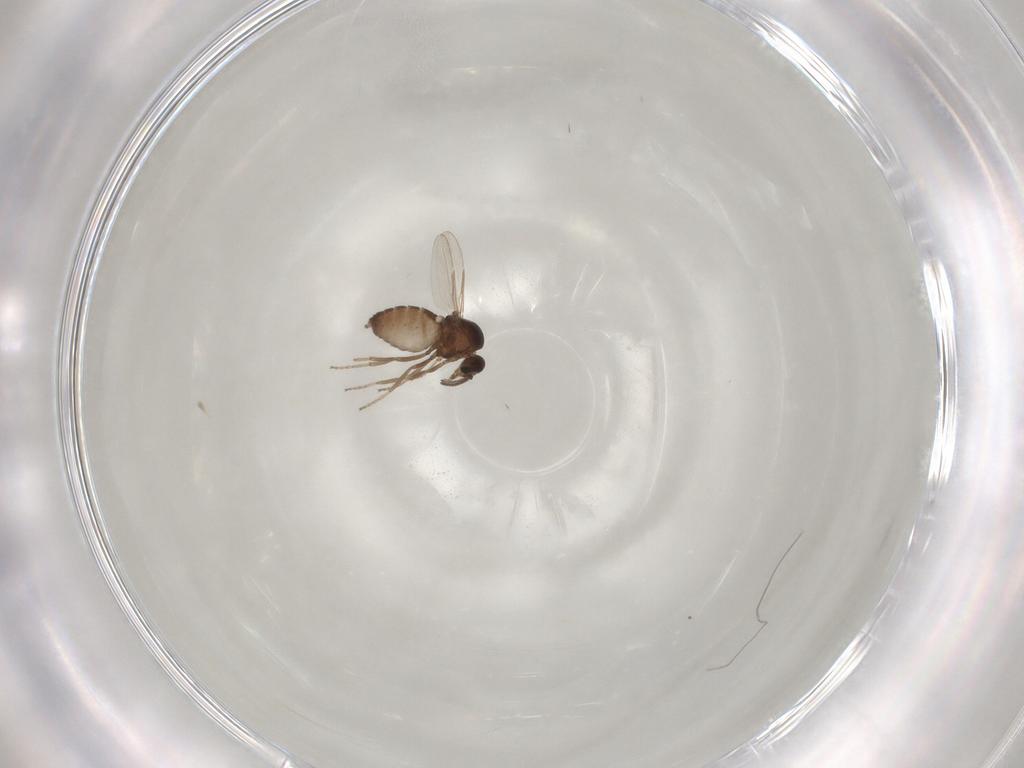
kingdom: Animalia
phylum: Arthropoda
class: Insecta
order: Diptera
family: Ceratopogonidae
